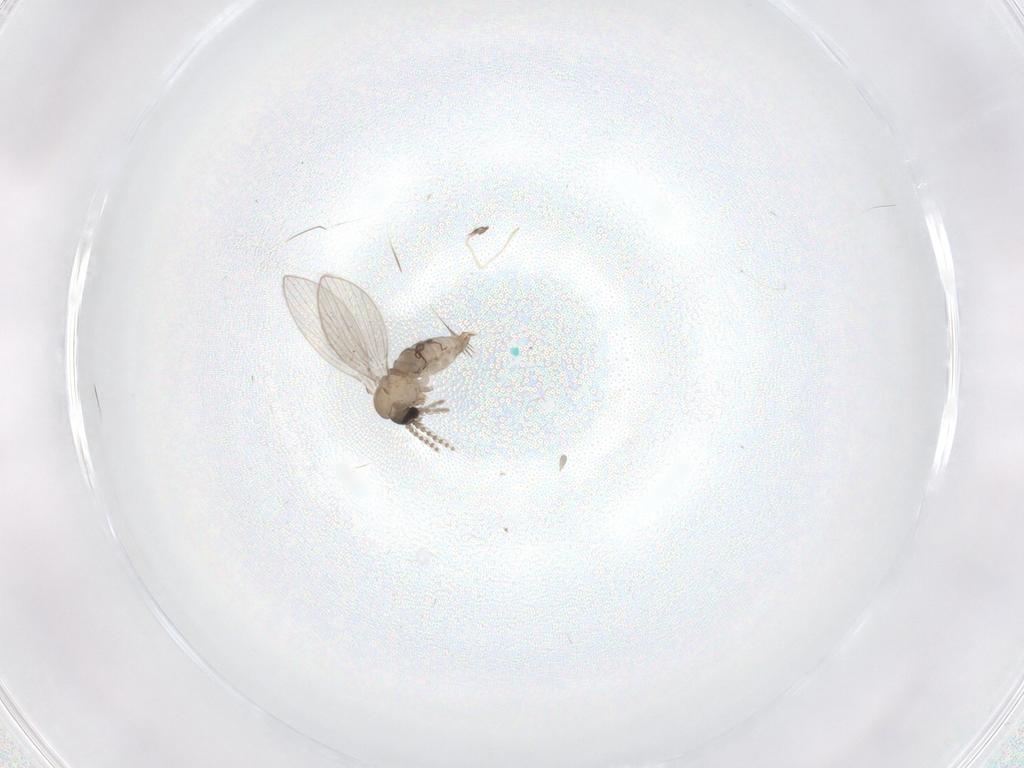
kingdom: Animalia
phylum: Arthropoda
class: Insecta
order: Diptera
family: Psychodidae
